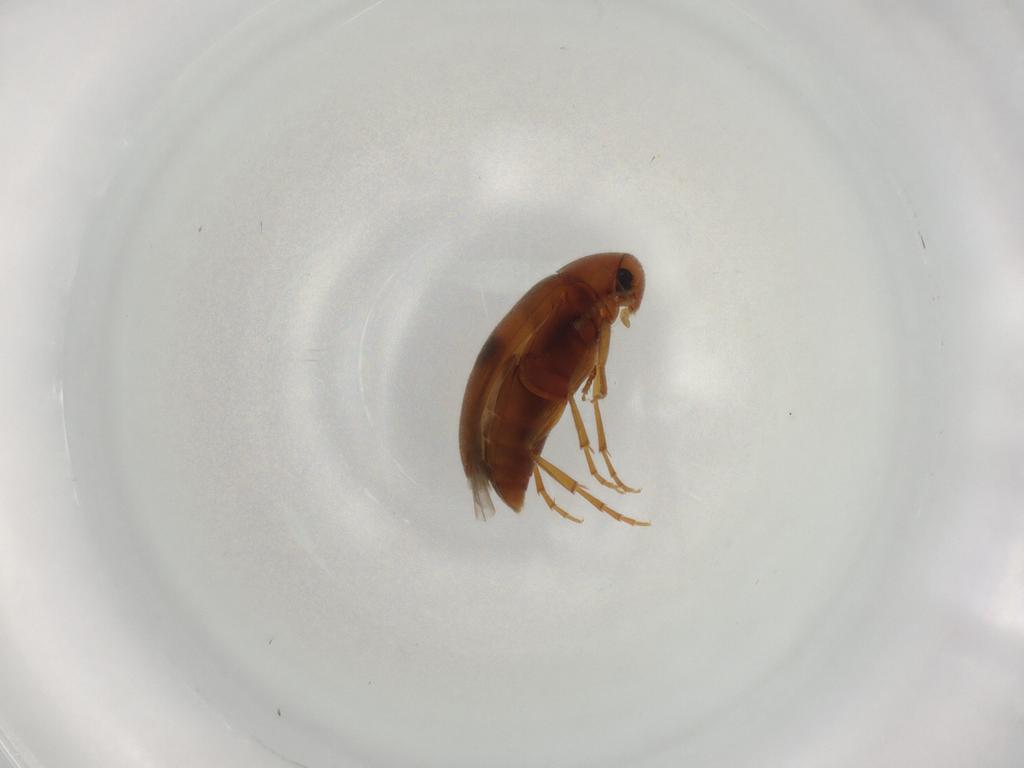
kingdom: Animalia
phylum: Arthropoda
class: Insecta
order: Coleoptera
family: Scraptiidae
